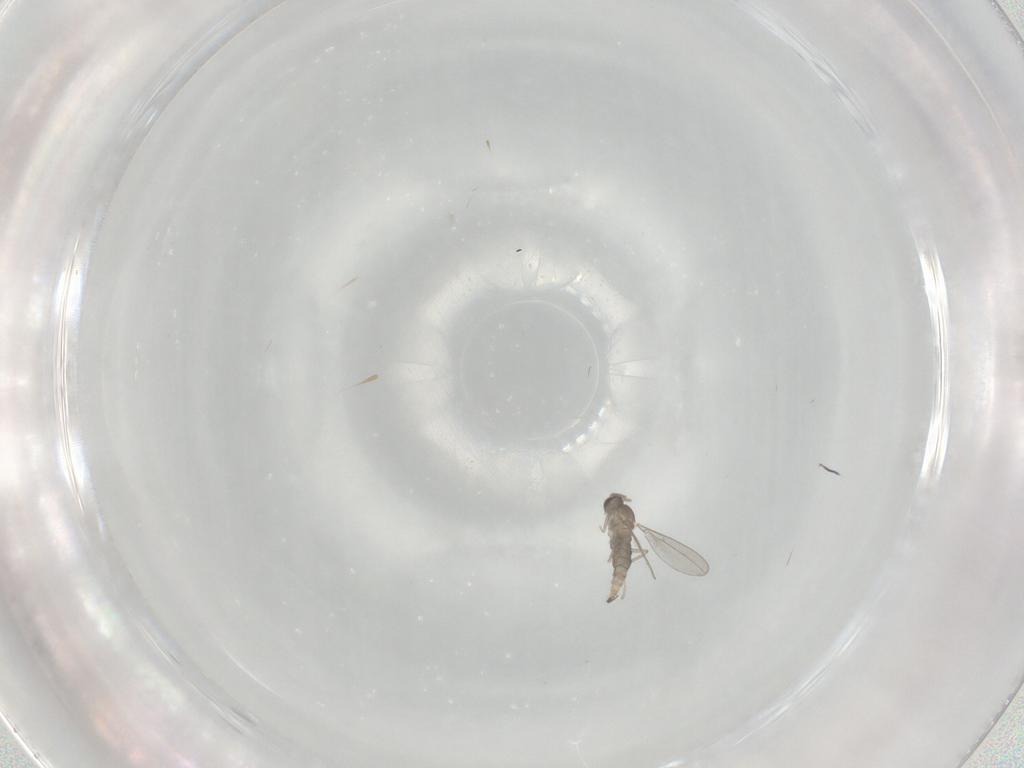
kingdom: Animalia
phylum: Arthropoda
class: Insecta
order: Diptera
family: Cecidomyiidae
